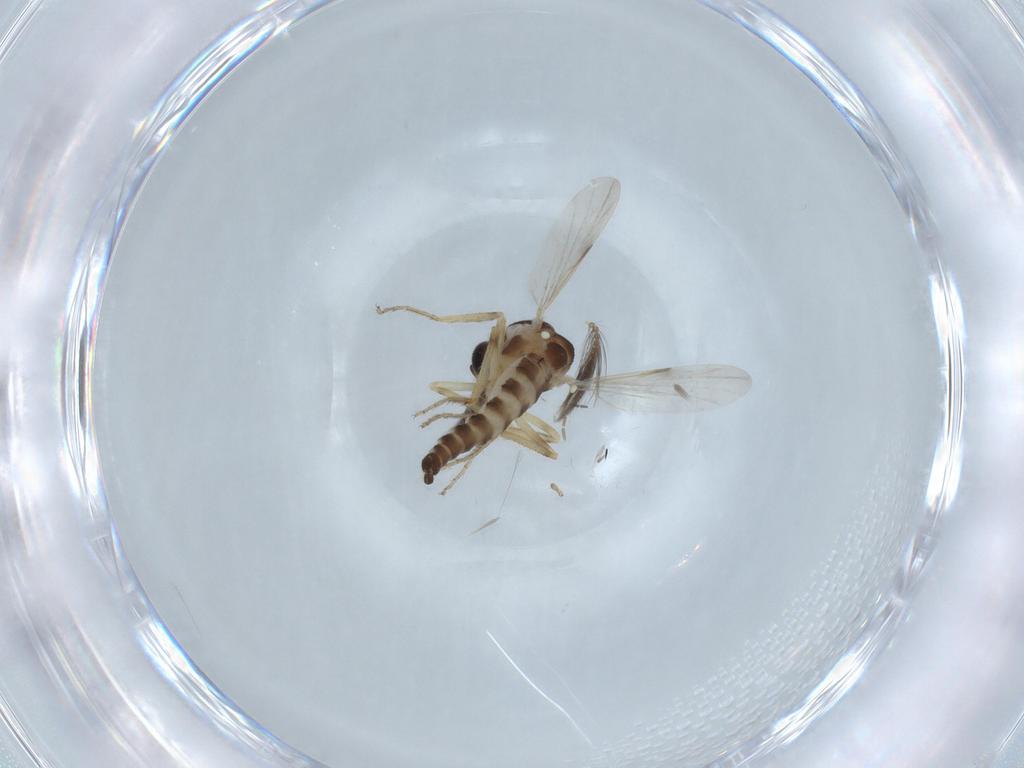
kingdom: Animalia
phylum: Arthropoda
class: Insecta
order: Diptera
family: Ceratopogonidae
